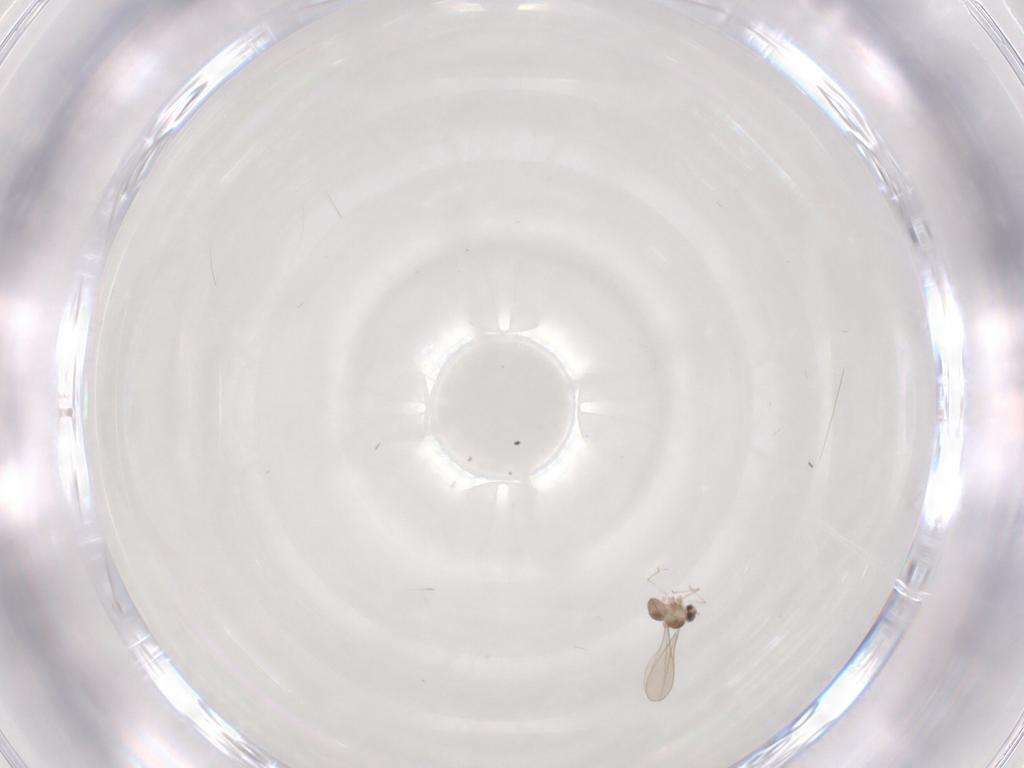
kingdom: Animalia
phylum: Arthropoda
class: Insecta
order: Diptera
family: Cecidomyiidae
